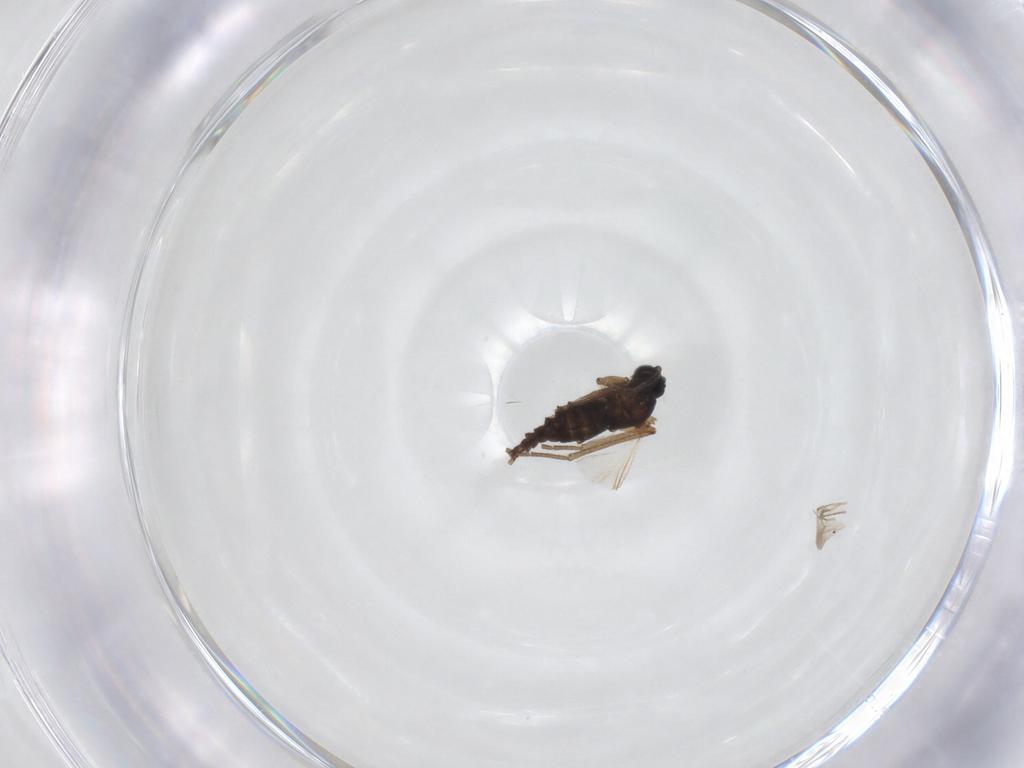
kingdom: Animalia
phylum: Arthropoda
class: Insecta
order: Diptera
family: Sciaridae
